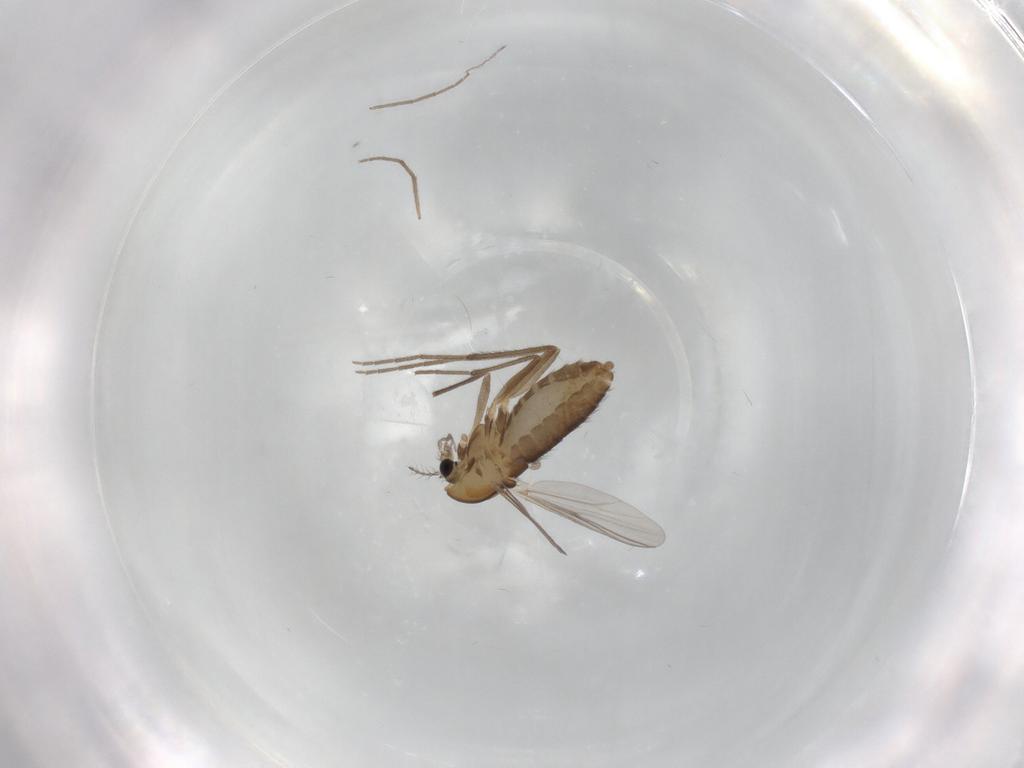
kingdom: Animalia
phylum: Arthropoda
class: Insecta
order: Diptera
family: Chironomidae
